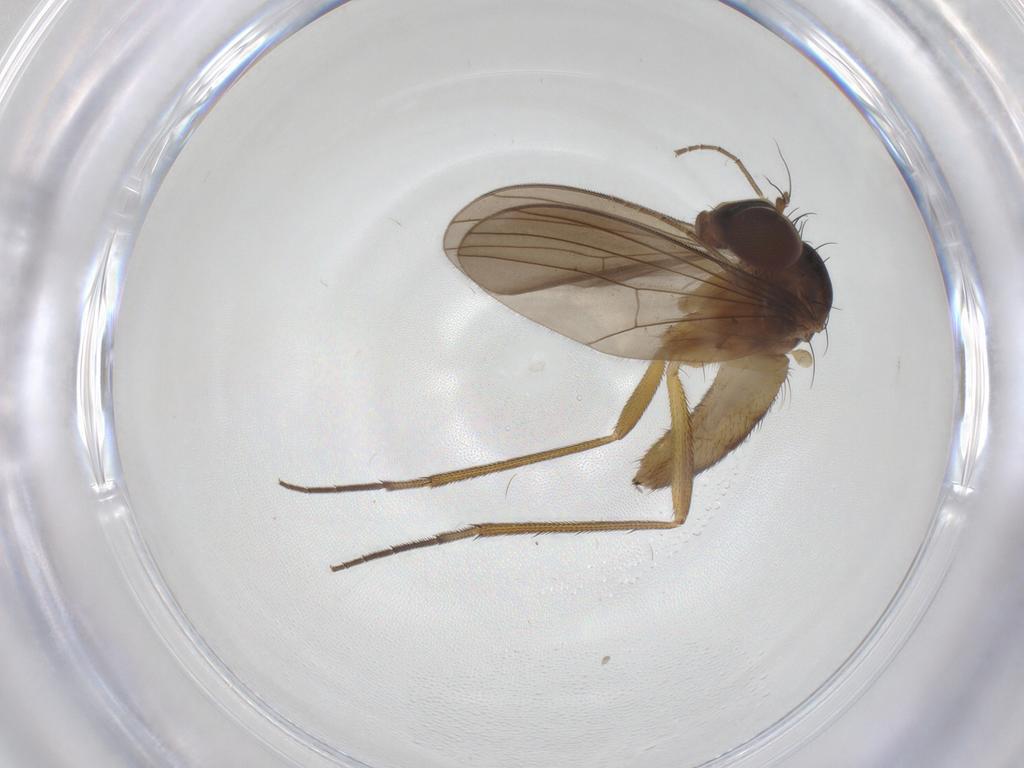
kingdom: Animalia
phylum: Arthropoda
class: Insecta
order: Diptera
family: Dolichopodidae
